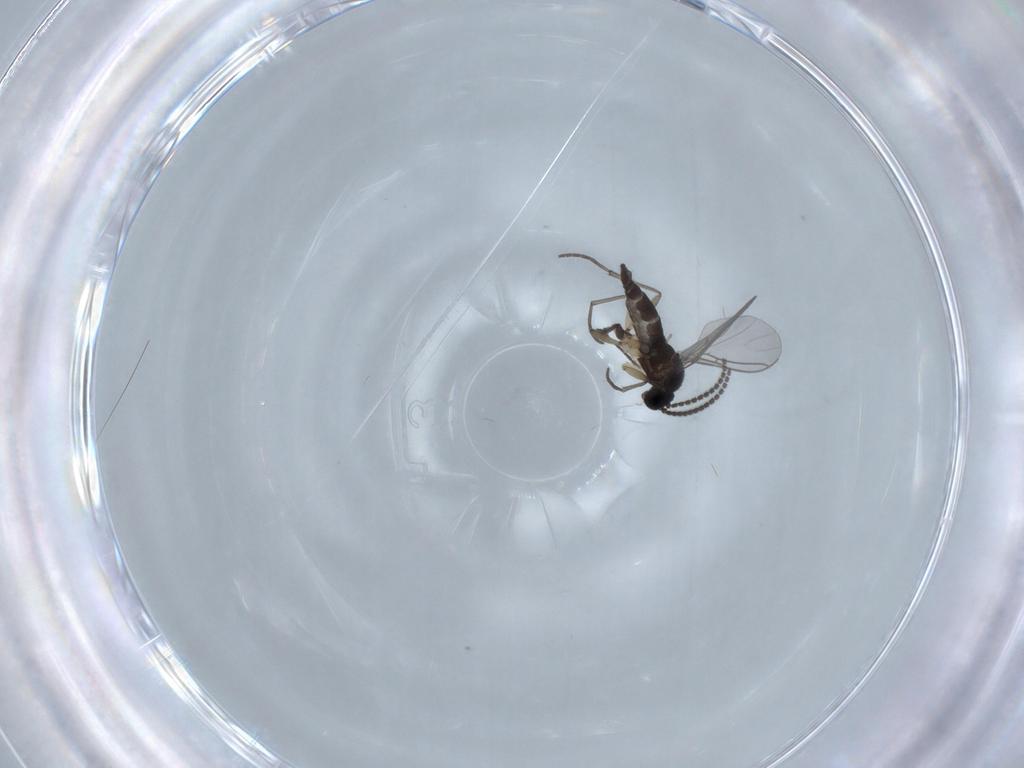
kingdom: Animalia
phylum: Arthropoda
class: Insecta
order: Diptera
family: Sciaridae
